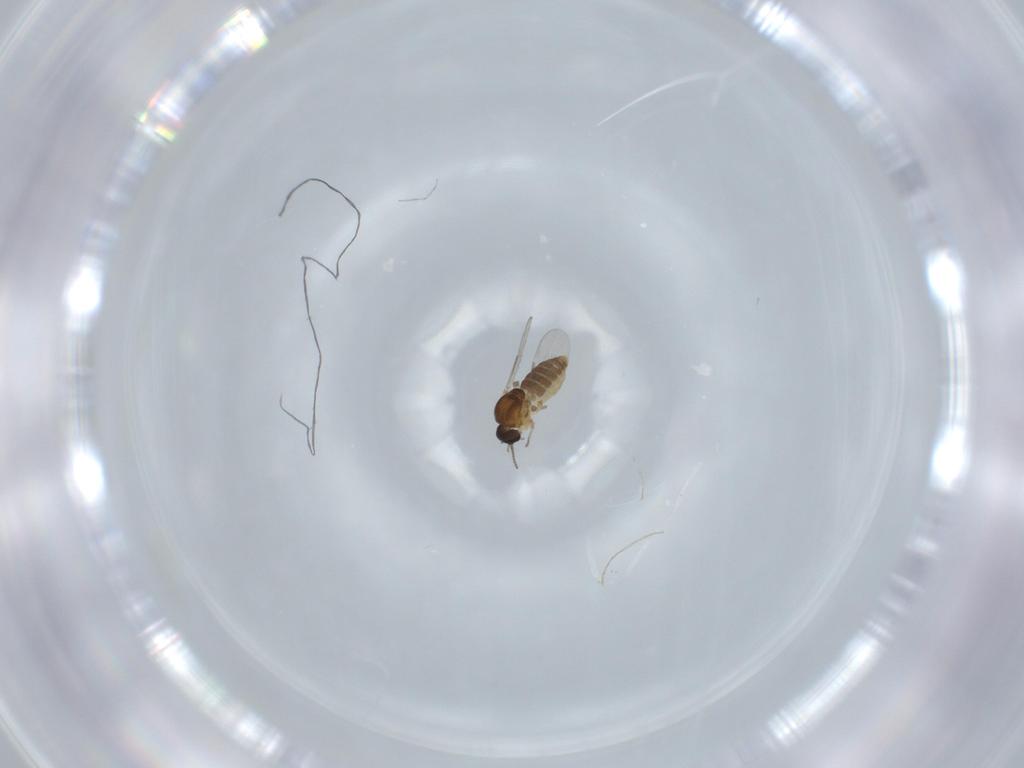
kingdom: Animalia
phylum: Arthropoda
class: Insecta
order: Diptera
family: Ceratopogonidae
